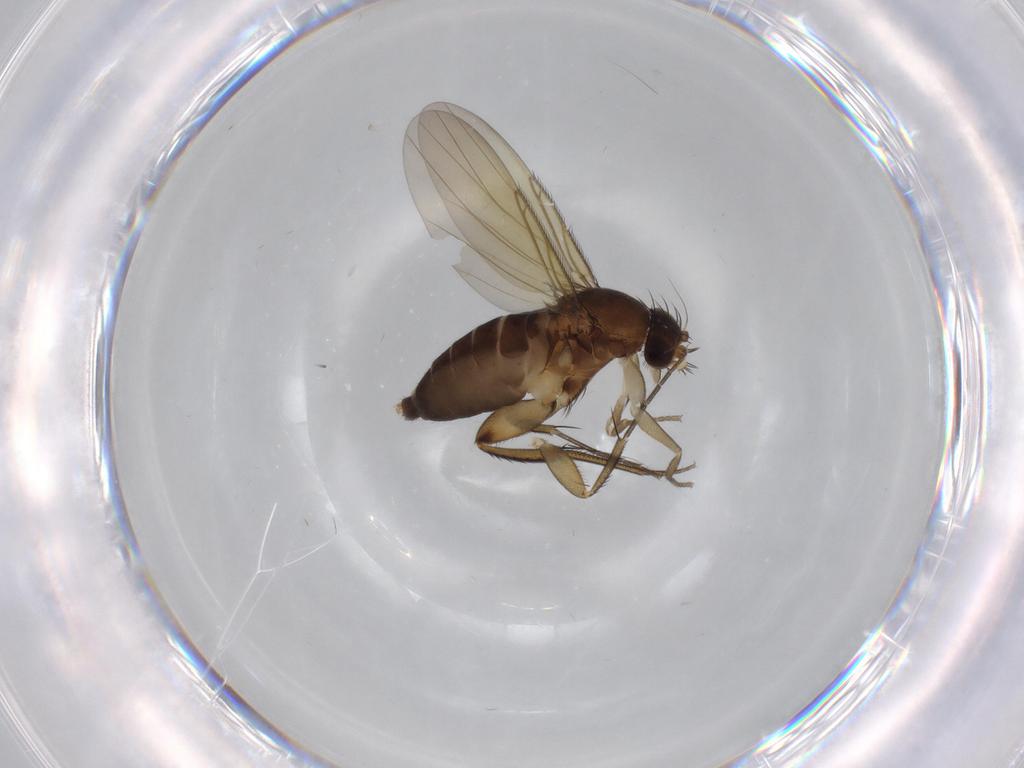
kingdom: Animalia
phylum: Arthropoda
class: Insecta
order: Diptera
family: Phoridae
